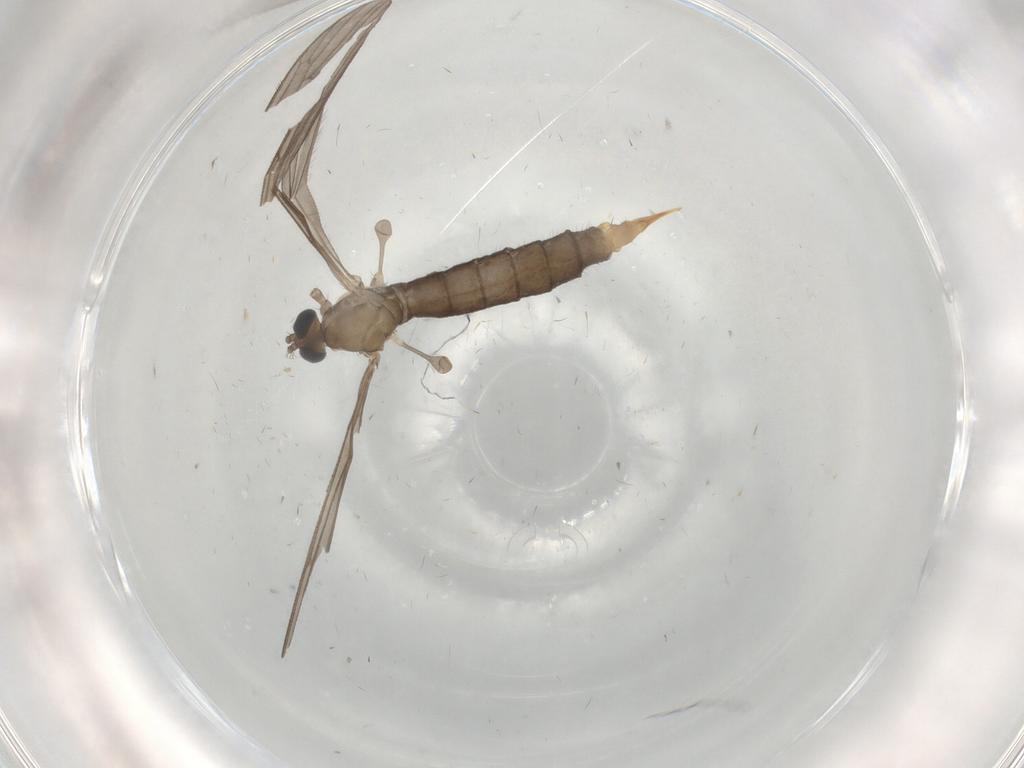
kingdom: Animalia
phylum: Arthropoda
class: Insecta
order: Diptera
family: Limoniidae
